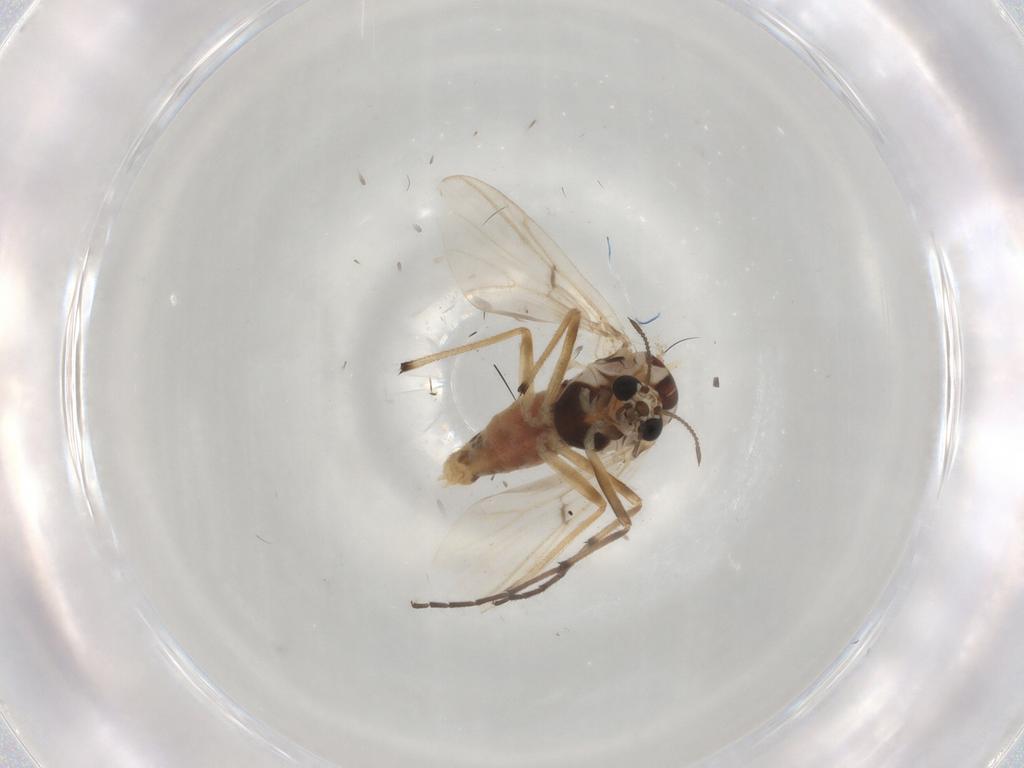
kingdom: Animalia
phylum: Arthropoda
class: Insecta
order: Diptera
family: Chironomidae
